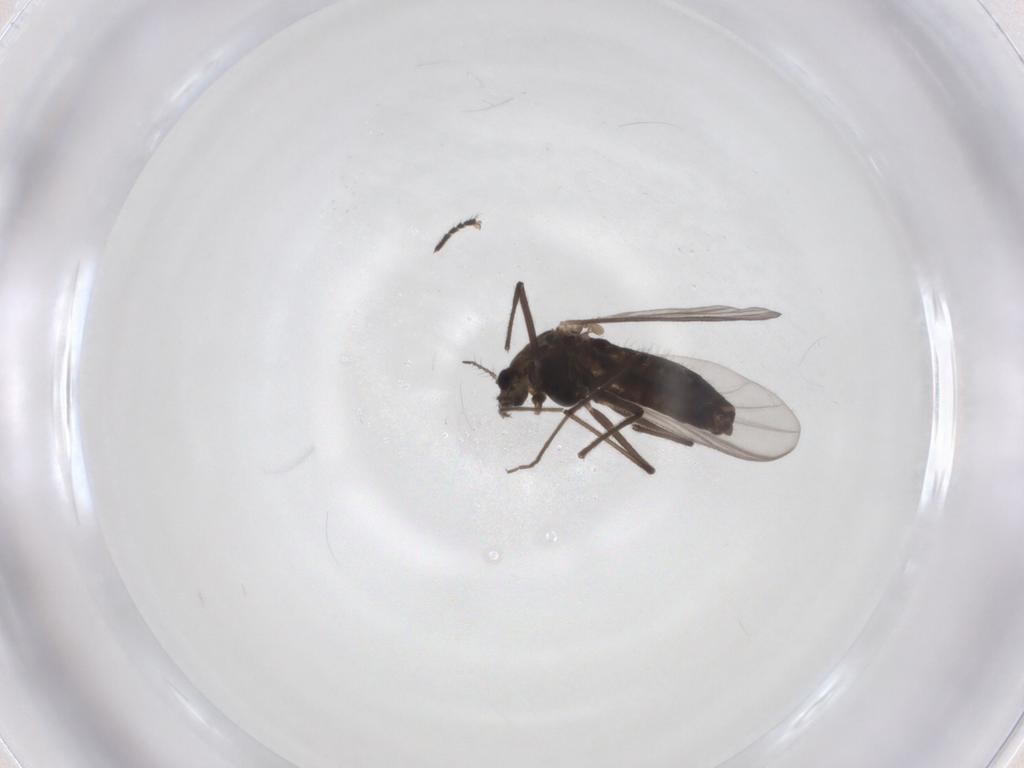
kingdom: Animalia
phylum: Arthropoda
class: Insecta
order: Diptera
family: Chironomidae
